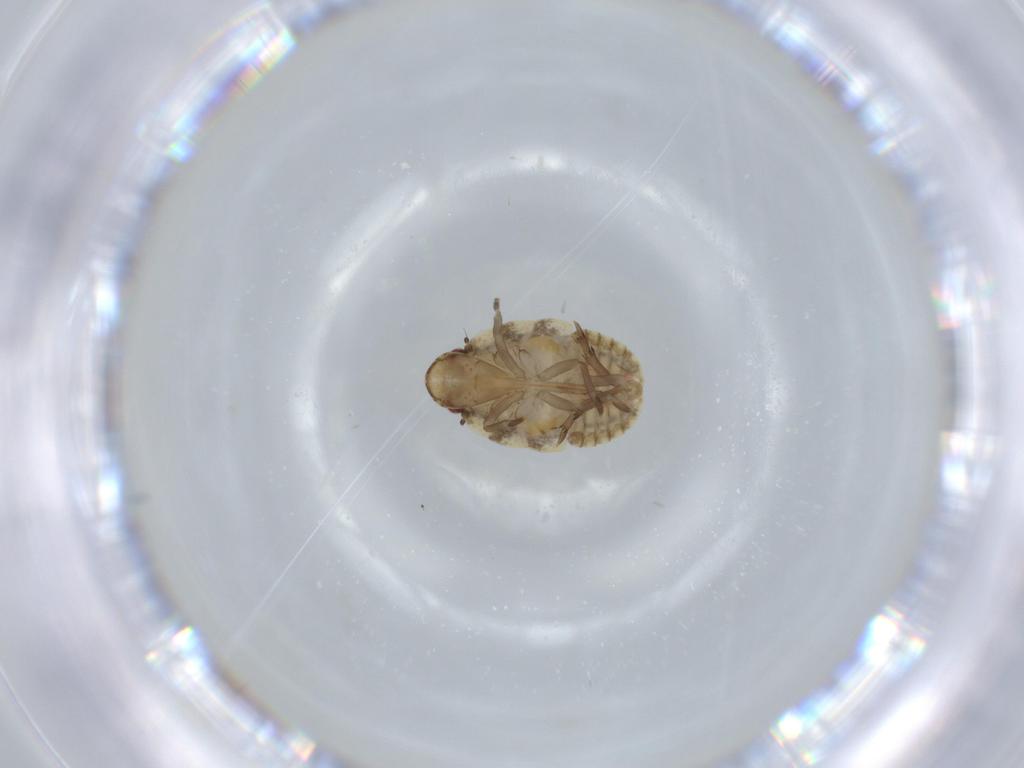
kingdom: Animalia
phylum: Arthropoda
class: Insecta
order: Hemiptera
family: Flatidae
